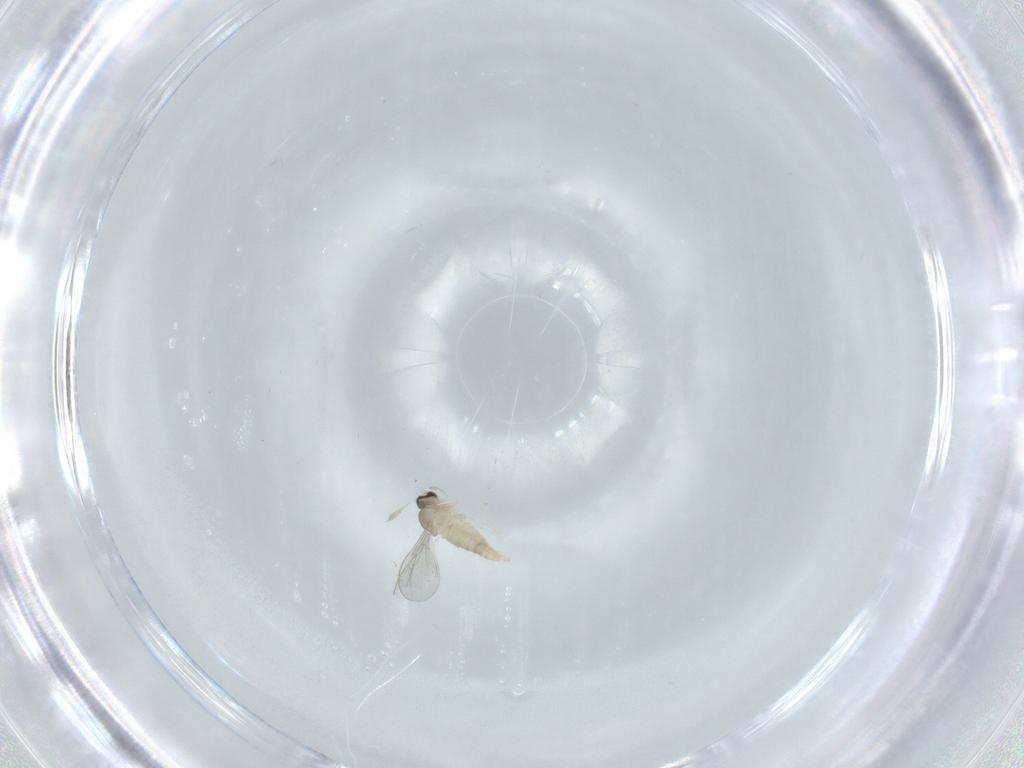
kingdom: Animalia
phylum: Arthropoda
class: Insecta
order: Diptera
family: Cecidomyiidae
